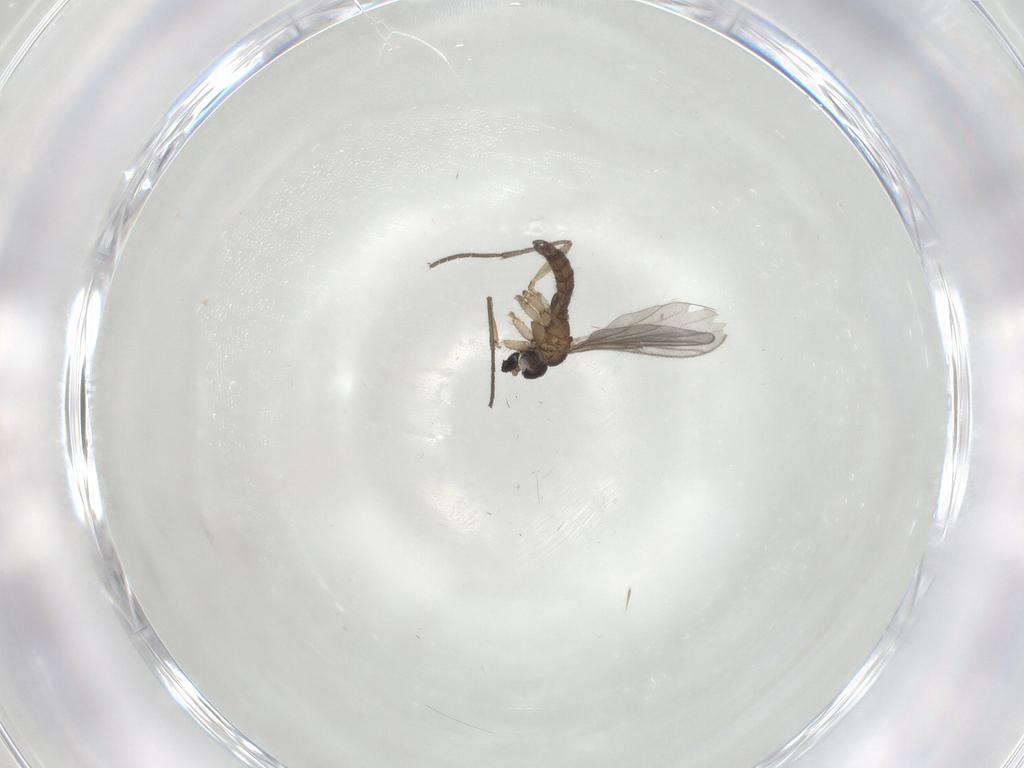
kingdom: Animalia
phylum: Arthropoda
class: Insecta
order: Diptera
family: Sciaridae
